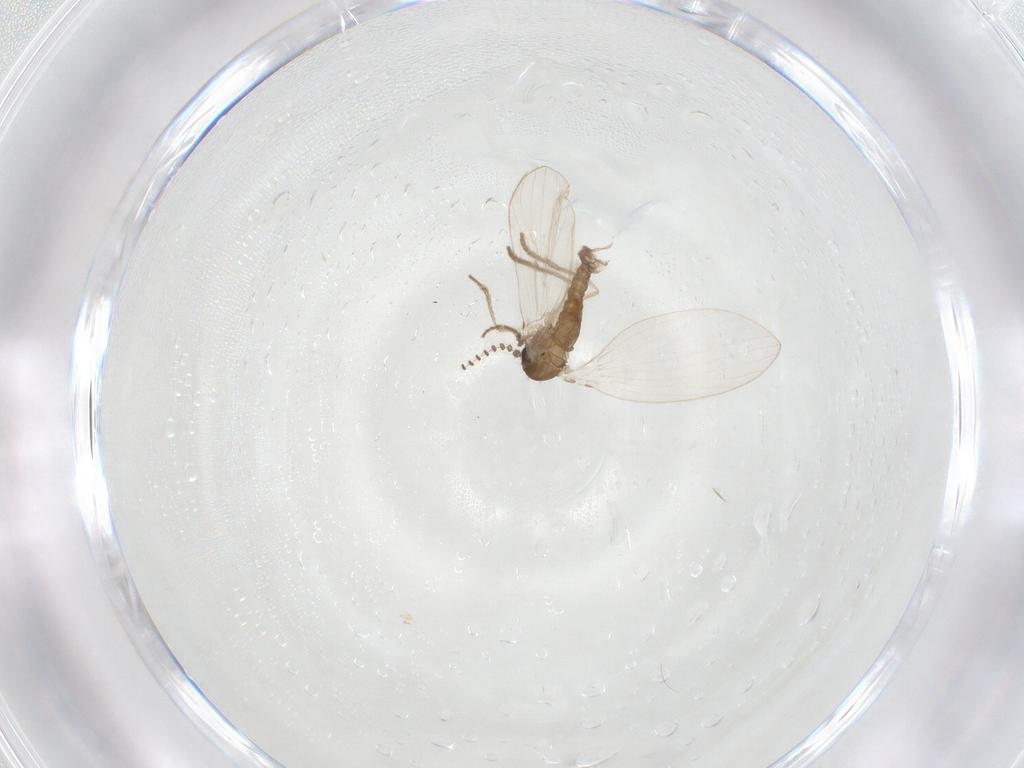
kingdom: Animalia
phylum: Arthropoda
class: Insecta
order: Diptera
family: Psychodidae
